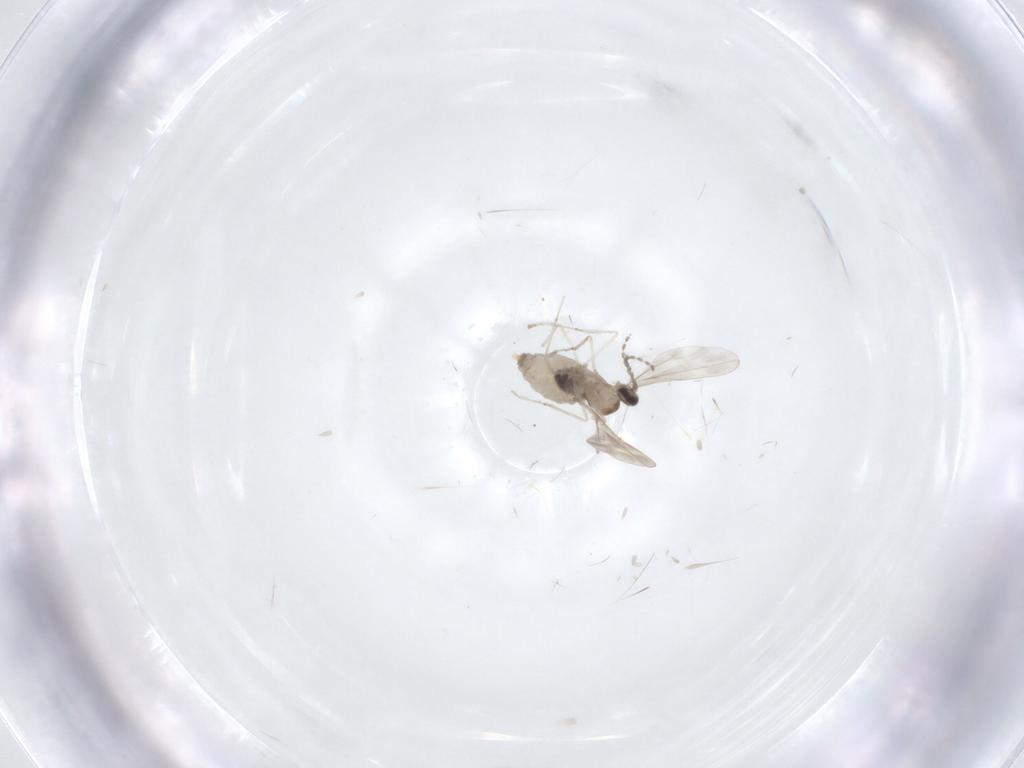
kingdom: Animalia
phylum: Arthropoda
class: Insecta
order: Diptera
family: Cecidomyiidae
